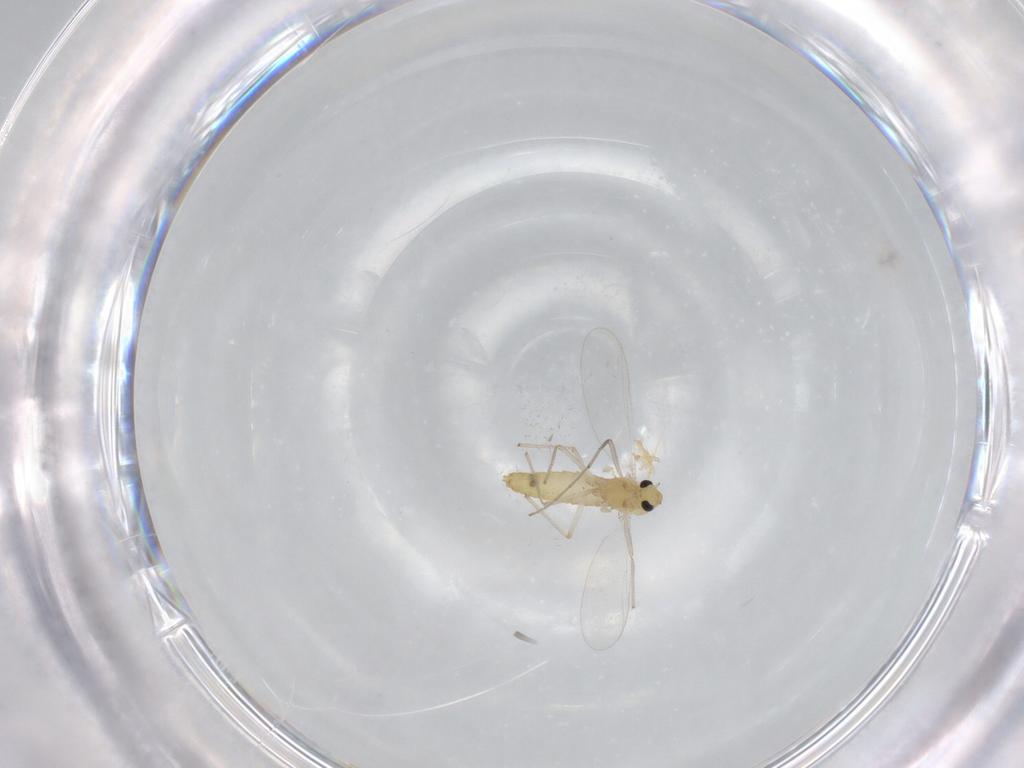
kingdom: Animalia
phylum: Arthropoda
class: Insecta
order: Diptera
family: Chironomidae
